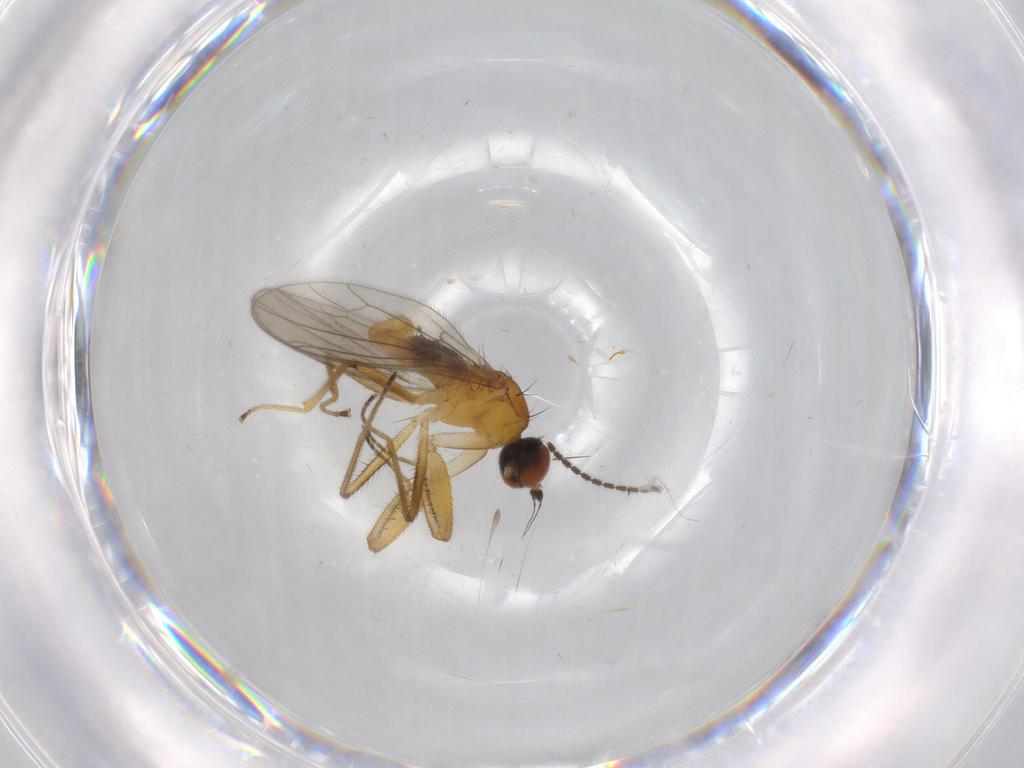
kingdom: Animalia
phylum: Arthropoda
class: Insecta
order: Diptera
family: Empididae
